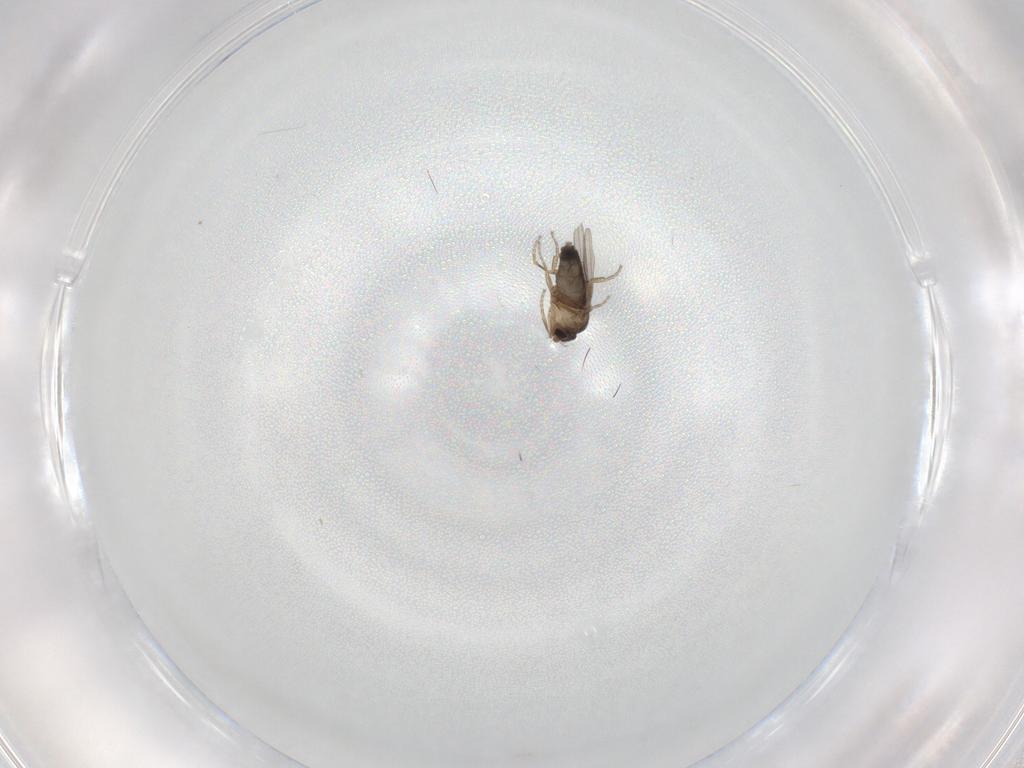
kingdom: Animalia
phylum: Arthropoda
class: Insecta
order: Diptera
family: Cecidomyiidae
